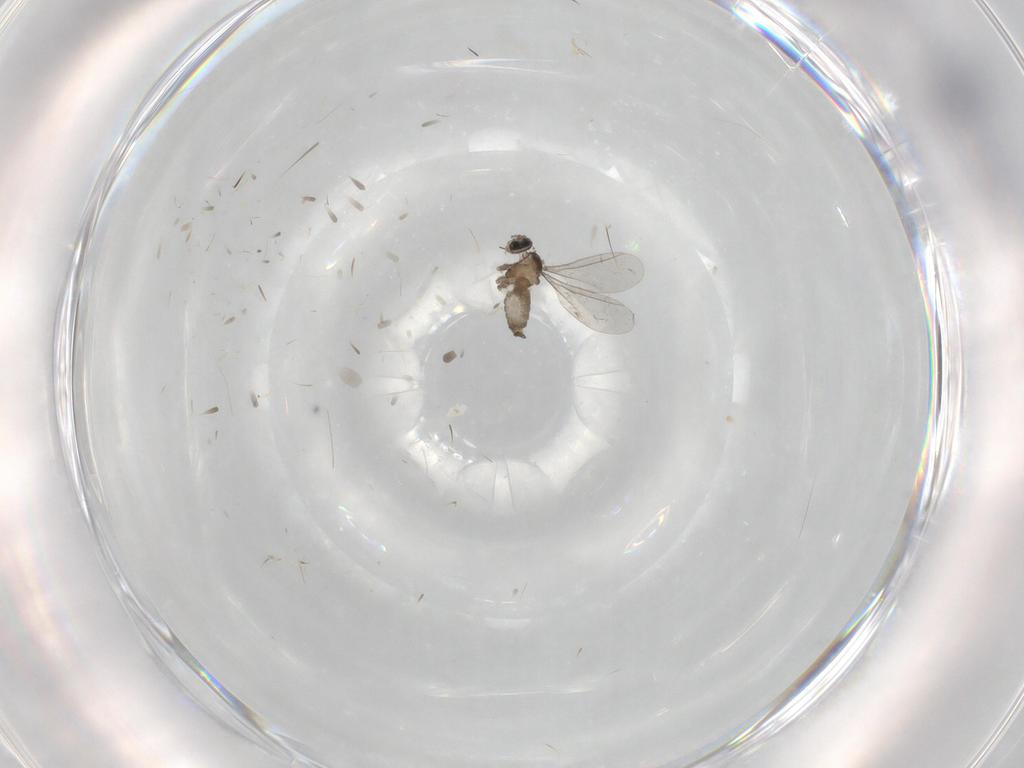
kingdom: Animalia
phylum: Arthropoda
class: Insecta
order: Diptera
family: Cecidomyiidae
